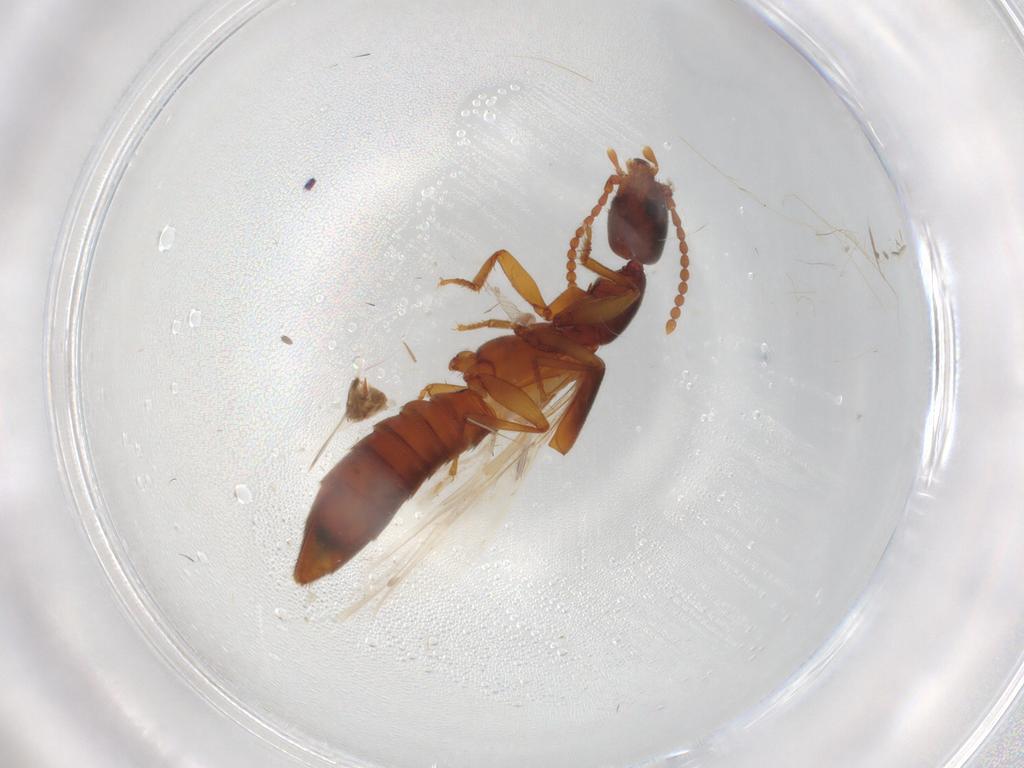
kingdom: Animalia
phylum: Arthropoda
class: Insecta
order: Coleoptera
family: Staphylinidae
